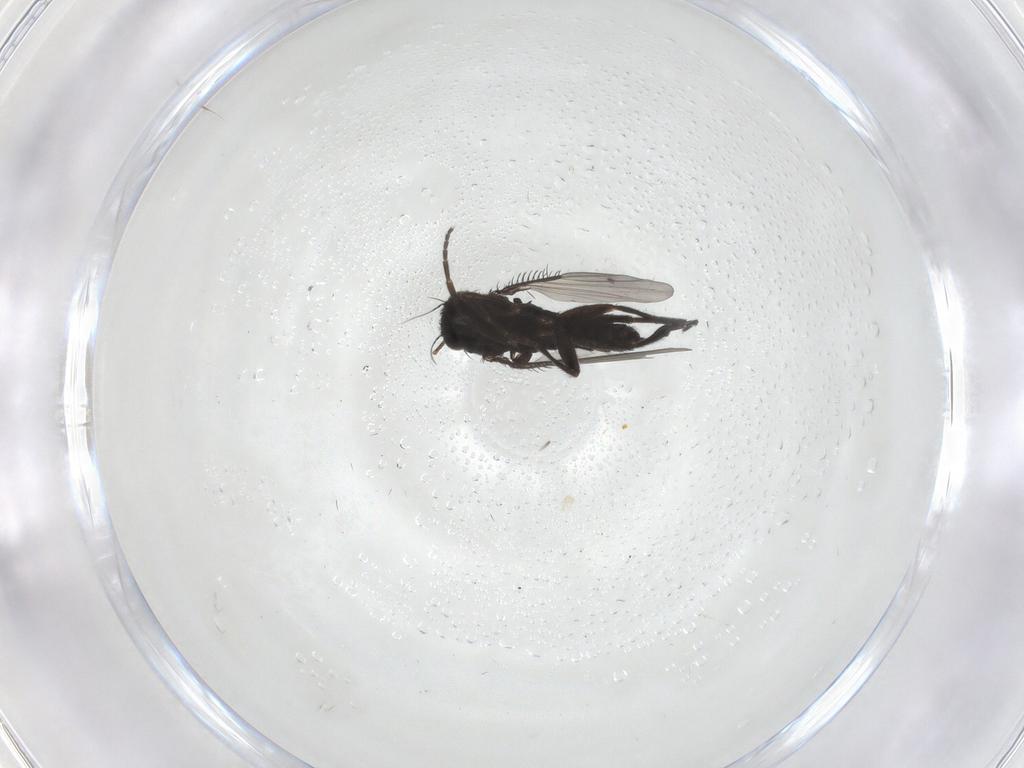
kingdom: Animalia
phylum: Arthropoda
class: Insecta
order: Diptera
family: Phoridae
